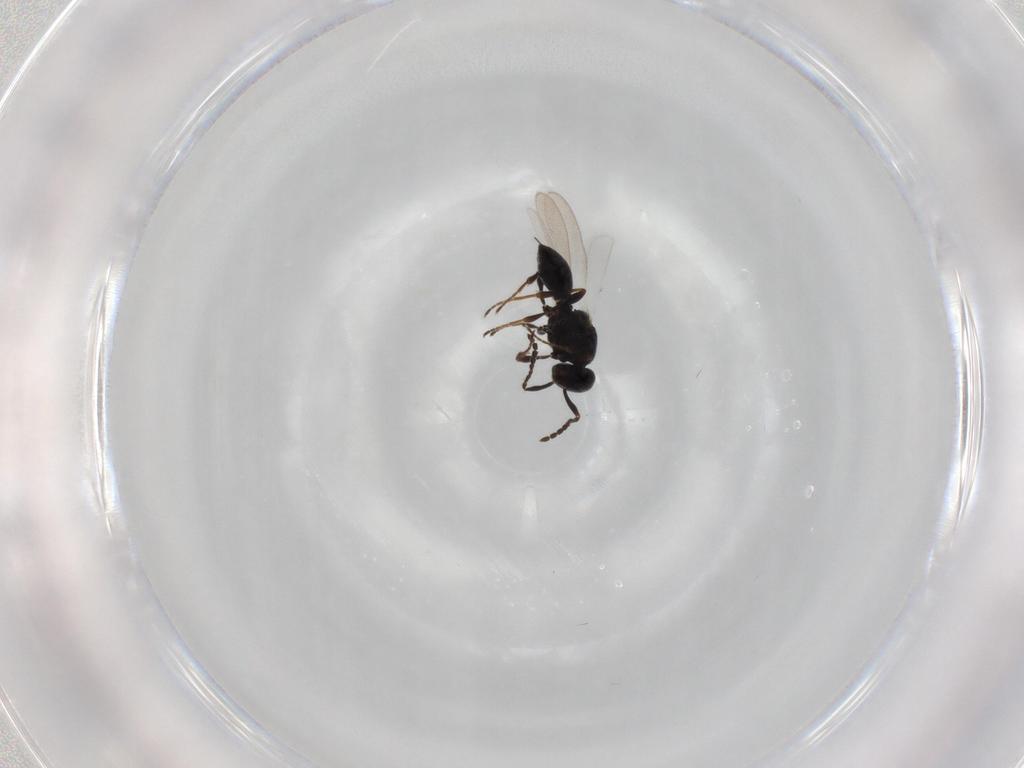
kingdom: Animalia
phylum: Arthropoda
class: Insecta
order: Hymenoptera
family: Platygastridae
